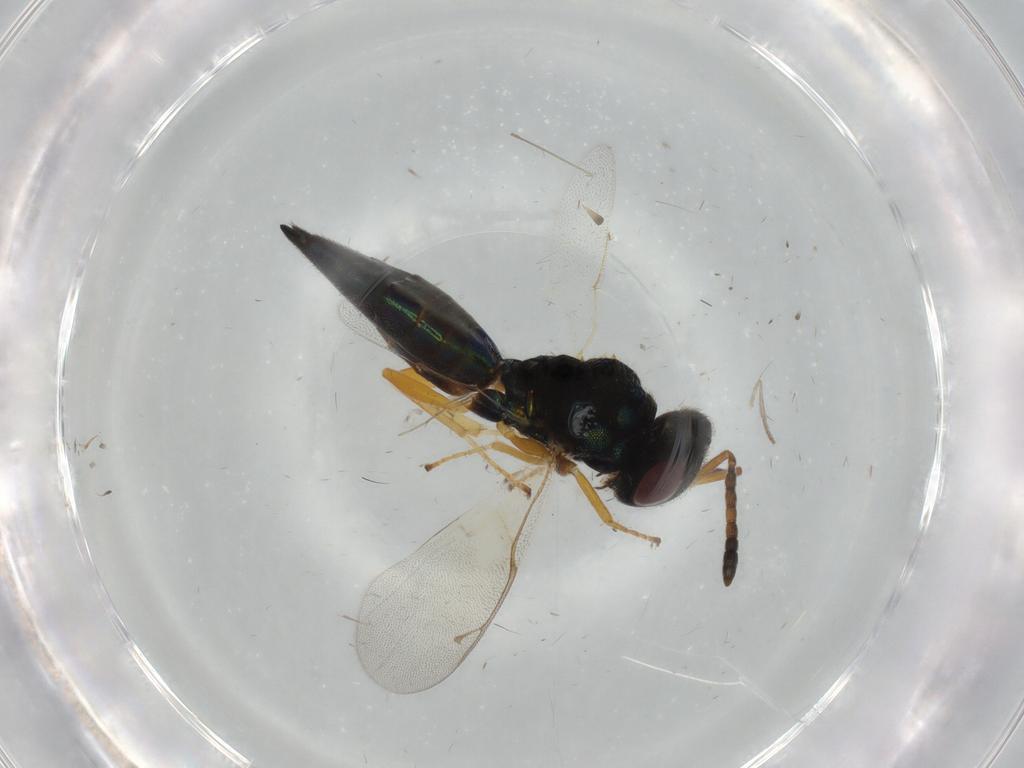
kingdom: Animalia
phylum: Arthropoda
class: Insecta
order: Hymenoptera
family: Pteromalidae
